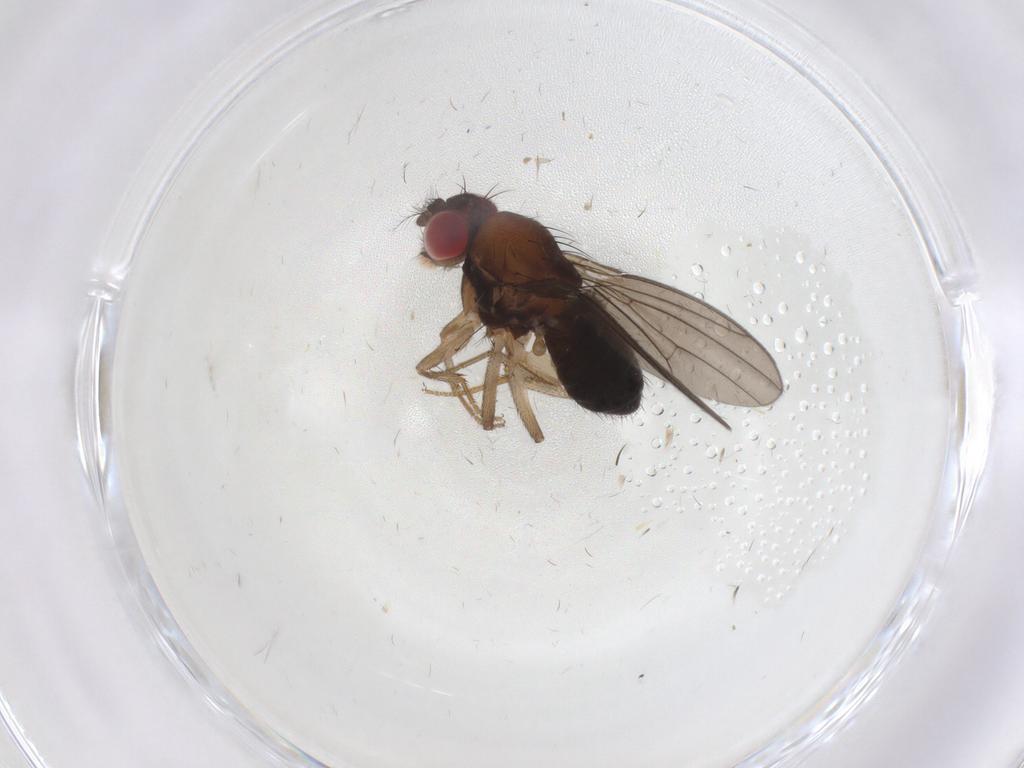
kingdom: Animalia
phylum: Arthropoda
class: Insecta
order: Diptera
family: Drosophilidae
